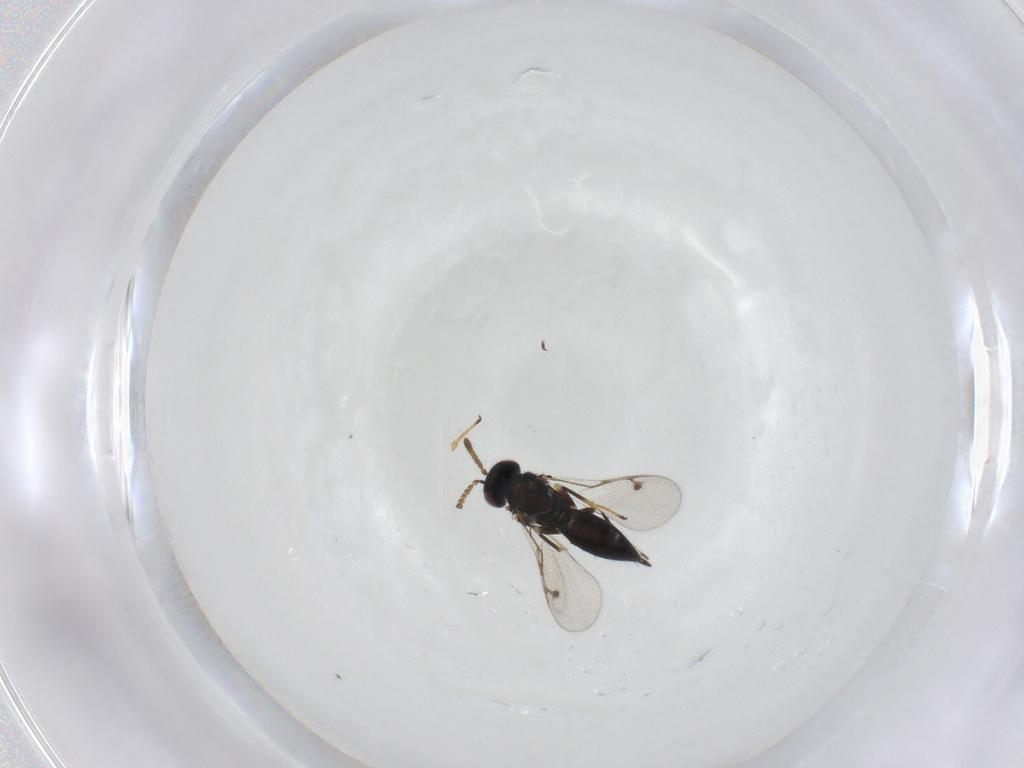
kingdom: Animalia
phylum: Arthropoda
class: Insecta
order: Hymenoptera
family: Pirenidae
